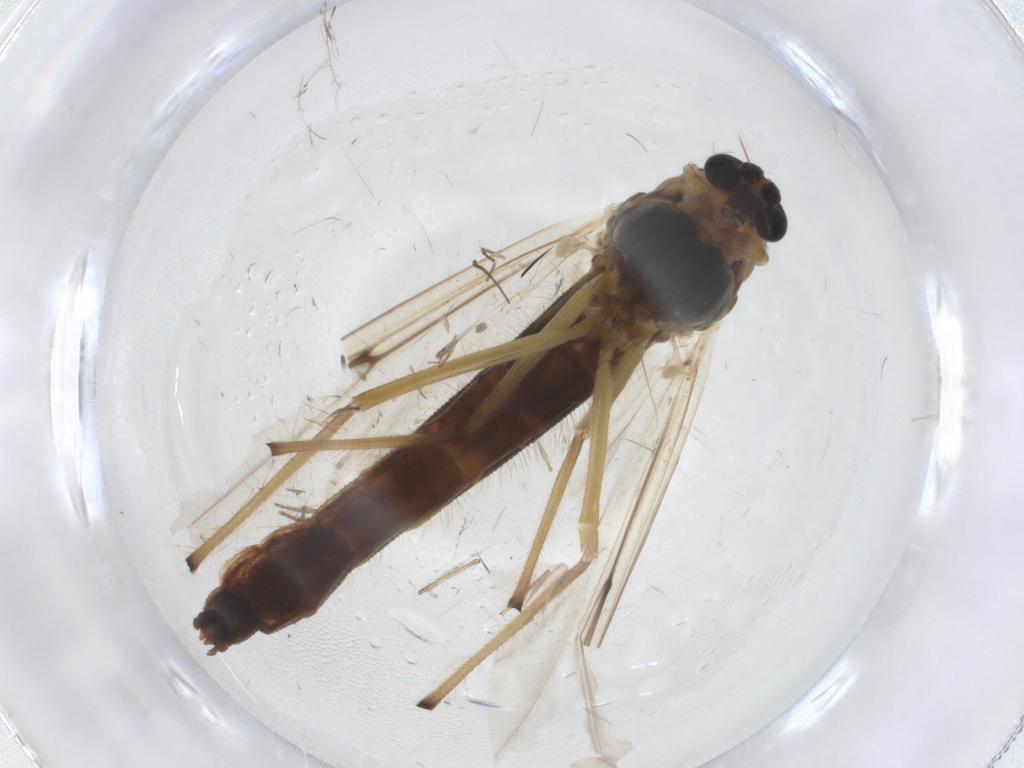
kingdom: Animalia
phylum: Arthropoda
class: Insecta
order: Diptera
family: Chironomidae
